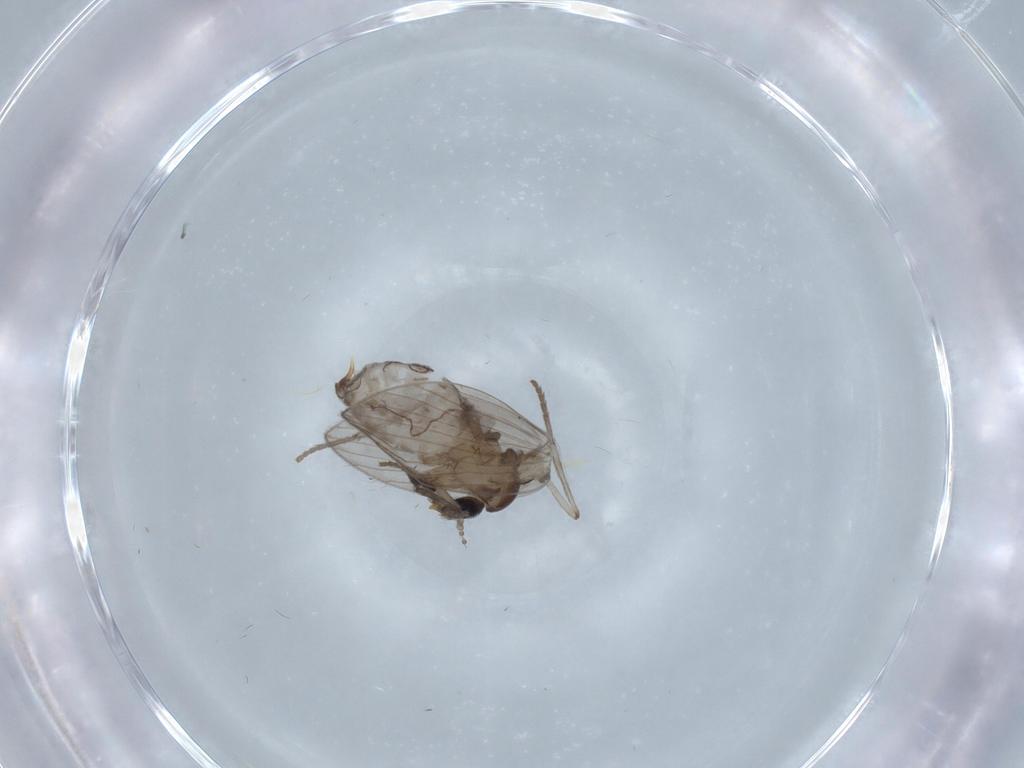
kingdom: Animalia
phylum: Arthropoda
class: Insecta
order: Diptera
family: Psychodidae
